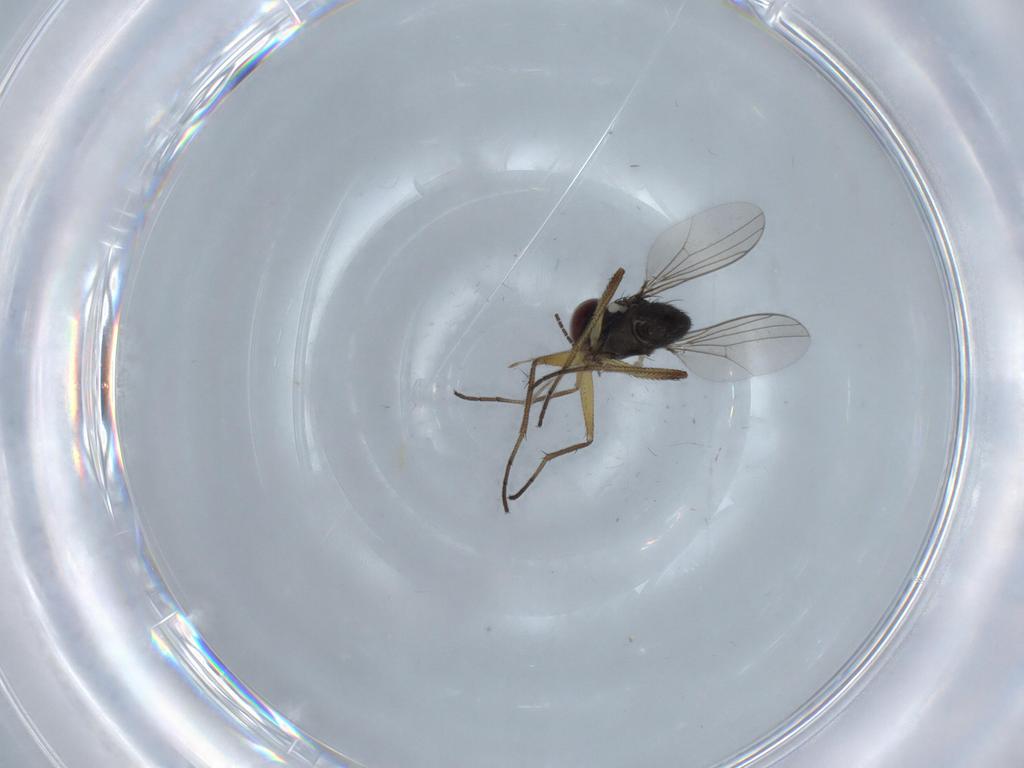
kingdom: Animalia
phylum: Arthropoda
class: Insecta
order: Diptera
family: Dolichopodidae
